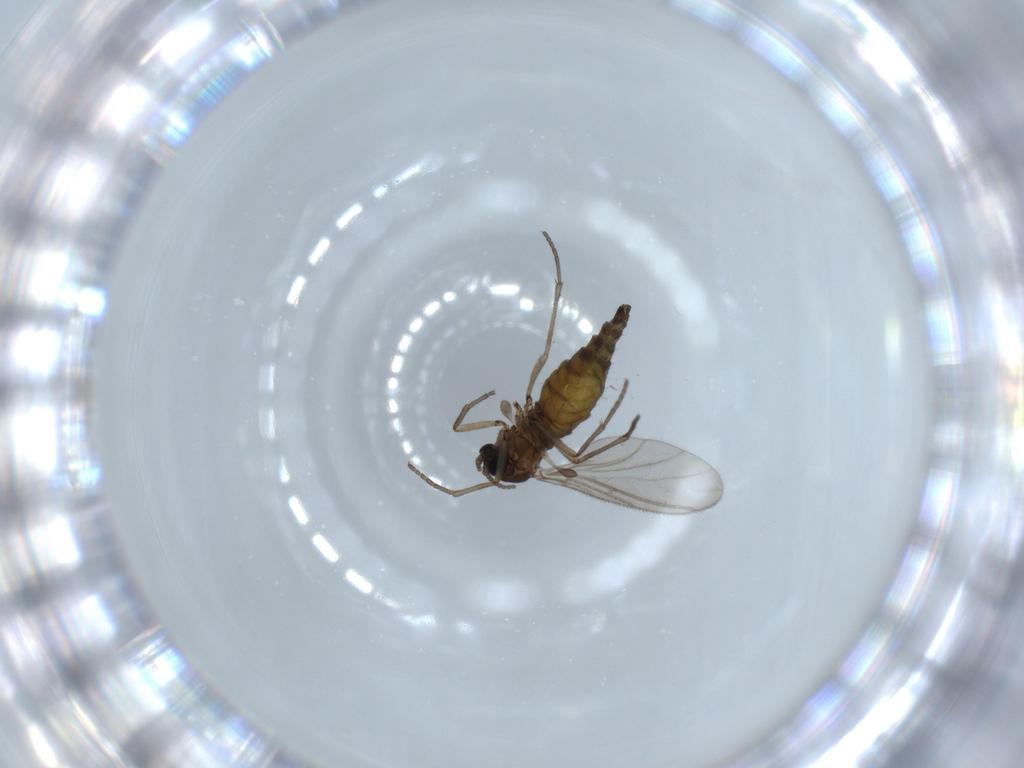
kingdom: Animalia
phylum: Arthropoda
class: Insecta
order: Diptera
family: Sciaridae
